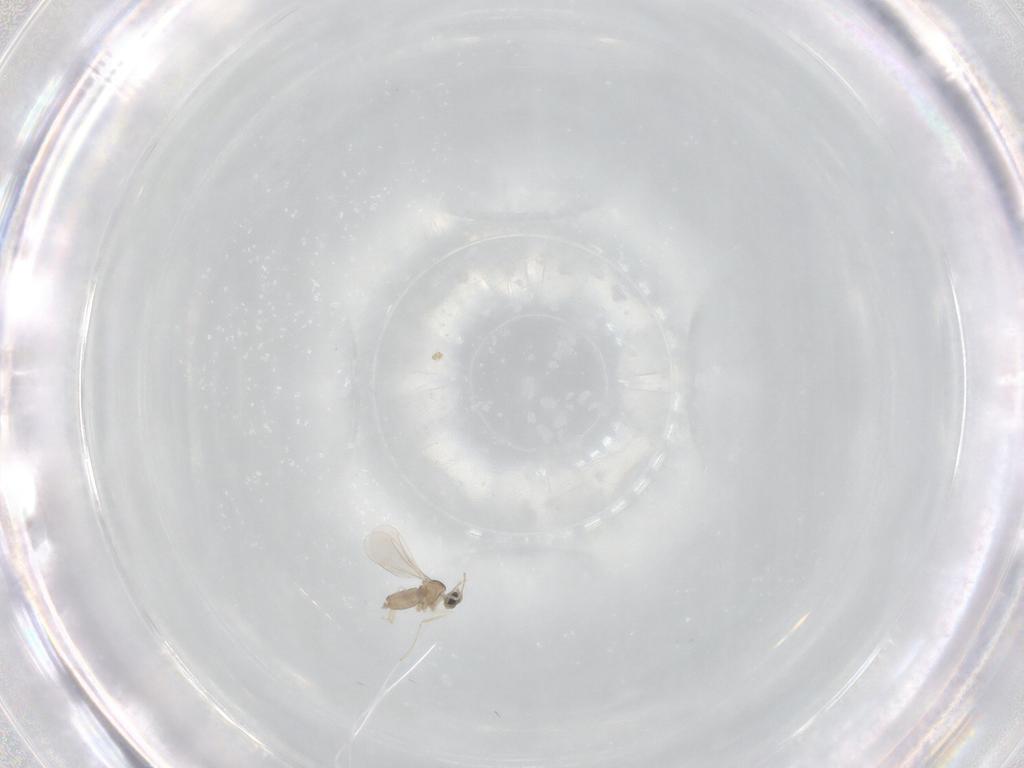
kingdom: Animalia
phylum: Arthropoda
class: Insecta
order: Diptera
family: Cecidomyiidae
